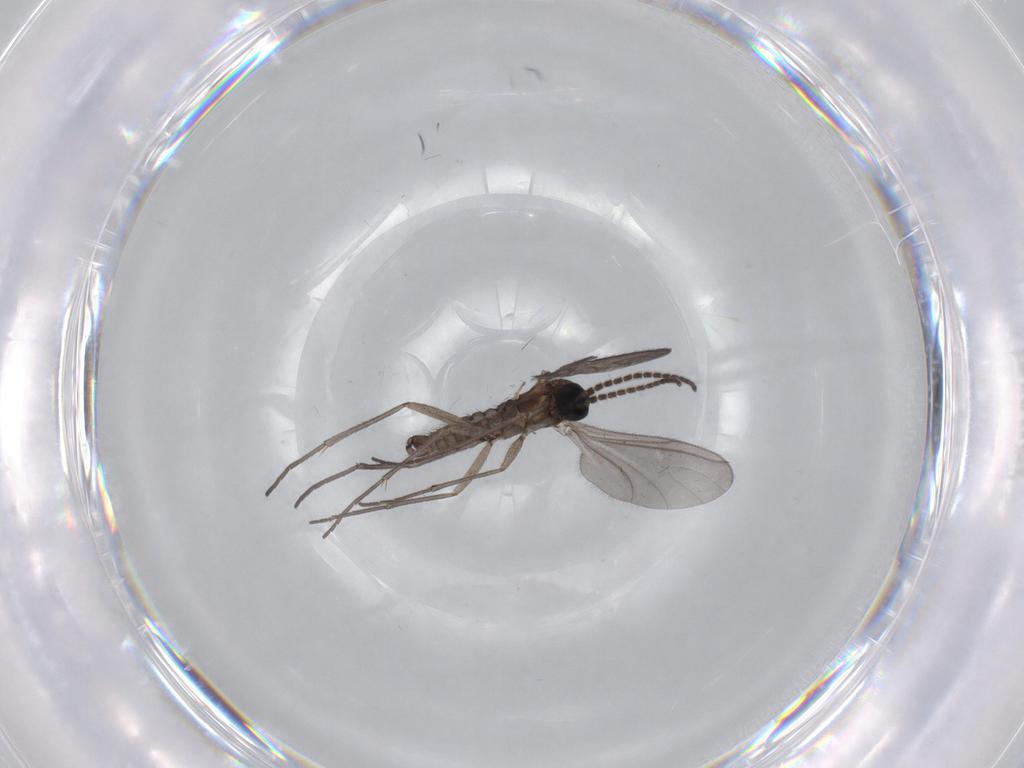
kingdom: Animalia
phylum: Arthropoda
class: Insecta
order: Diptera
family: Sciaridae
